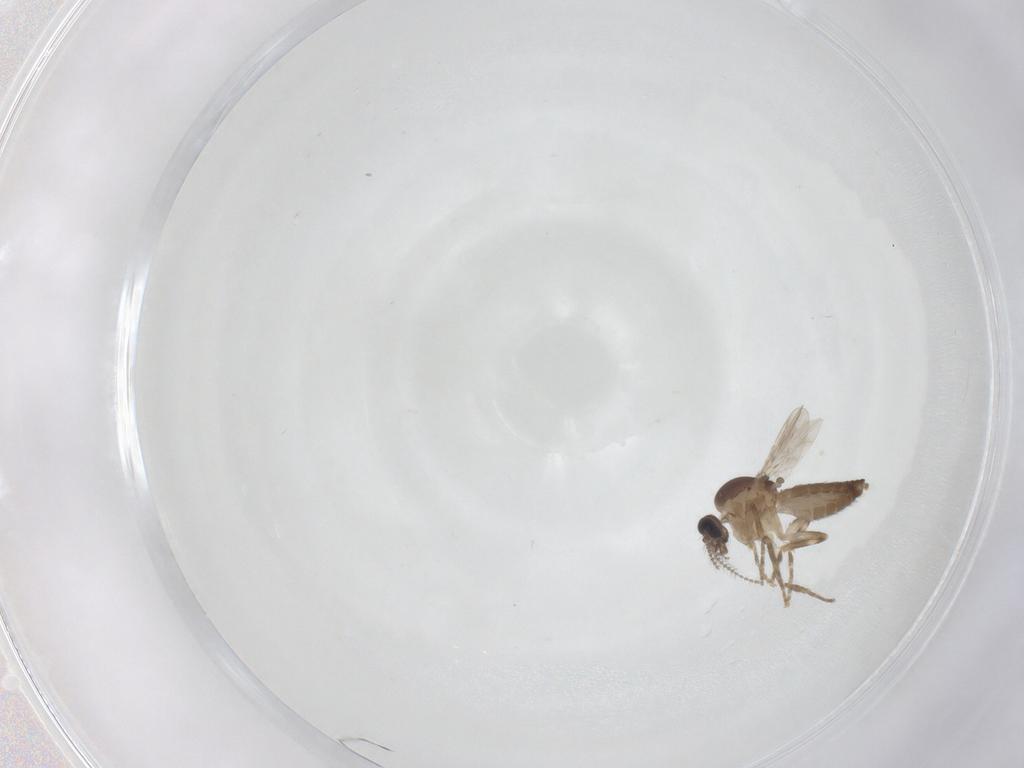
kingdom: Animalia
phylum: Arthropoda
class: Insecta
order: Diptera
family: Ceratopogonidae
